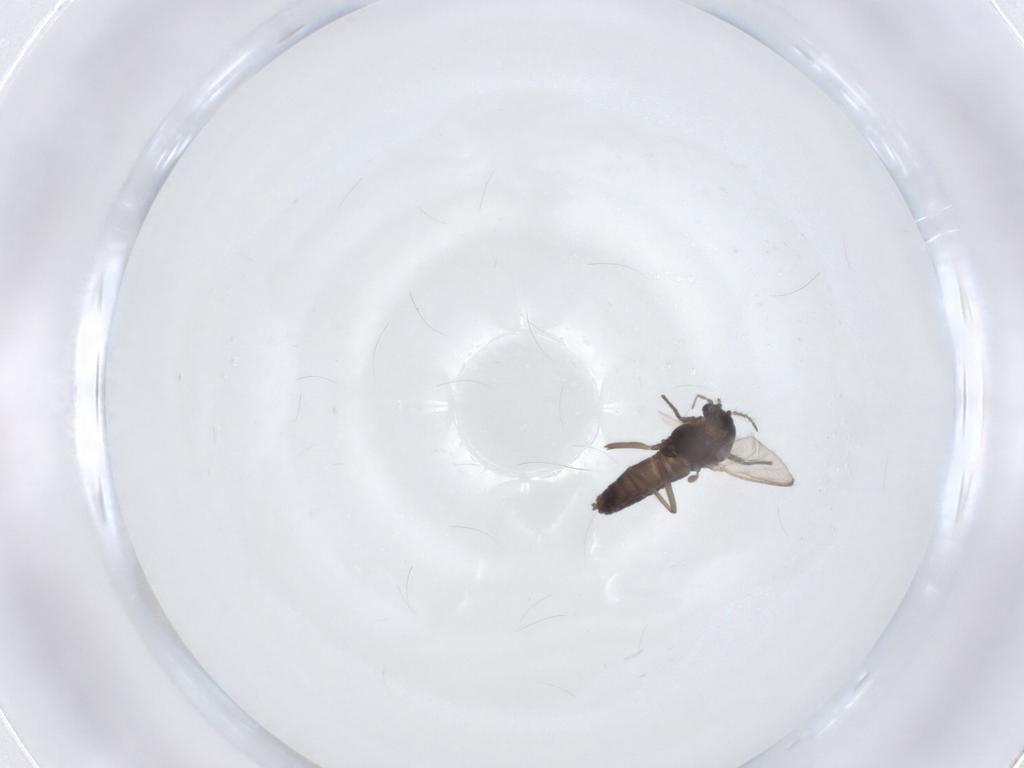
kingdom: Animalia
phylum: Arthropoda
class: Insecta
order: Diptera
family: Chironomidae
